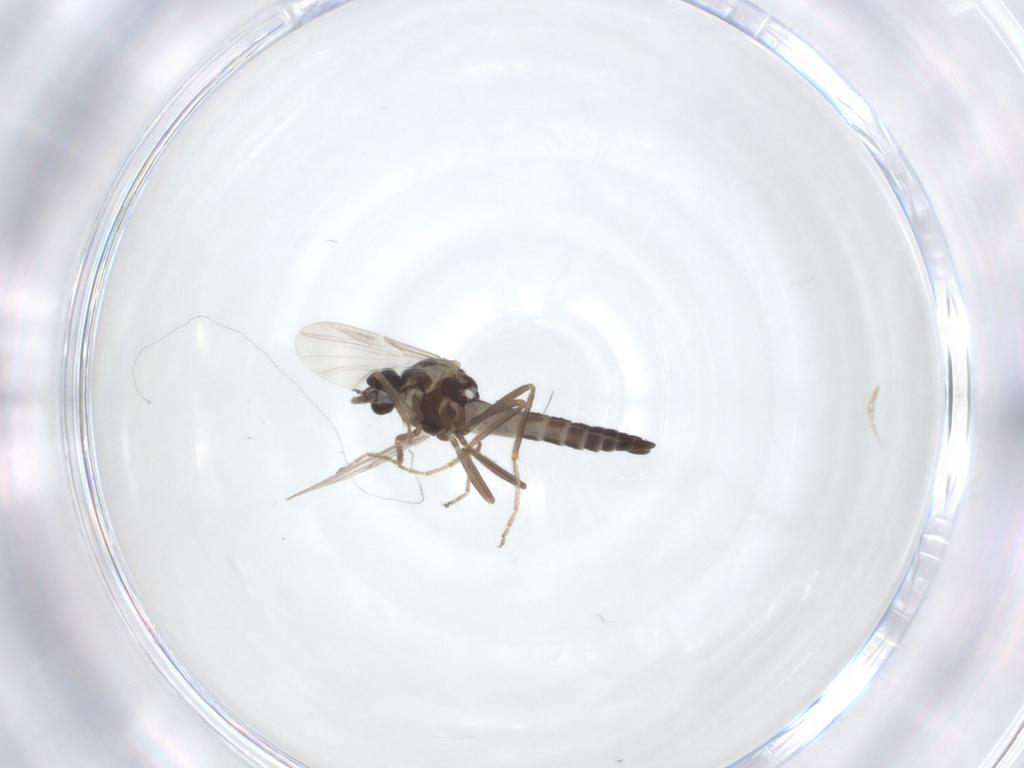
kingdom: Animalia
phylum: Arthropoda
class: Insecta
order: Diptera
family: Ceratopogonidae
